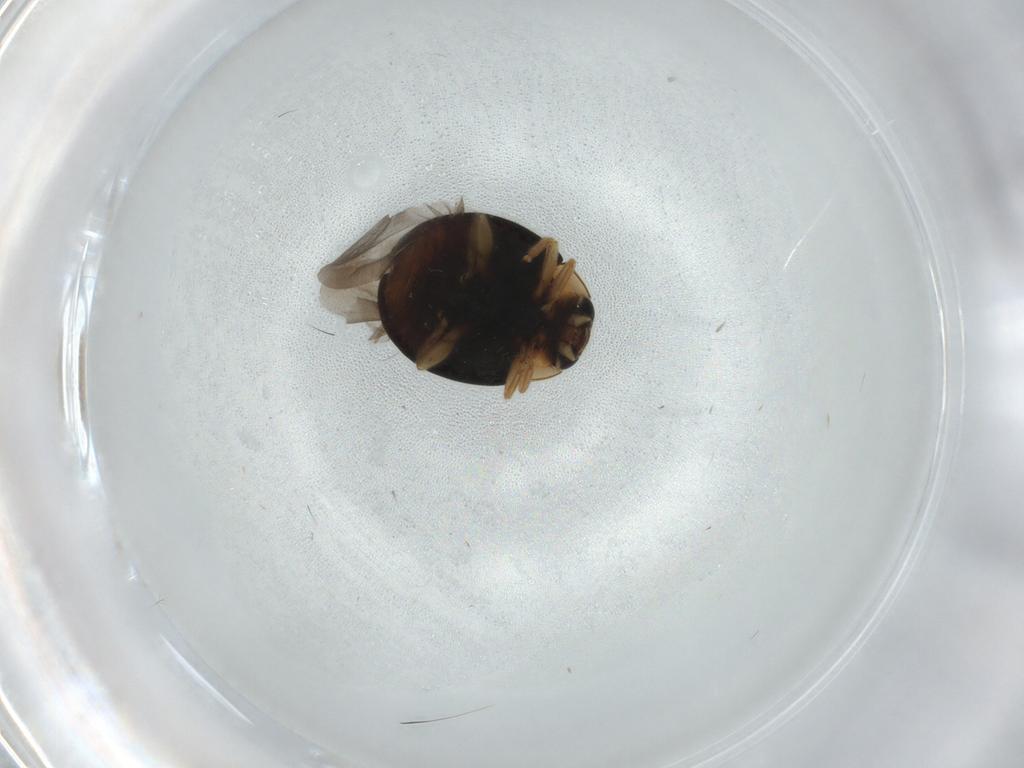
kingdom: Animalia
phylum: Arthropoda
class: Insecta
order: Coleoptera
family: Coccinellidae
